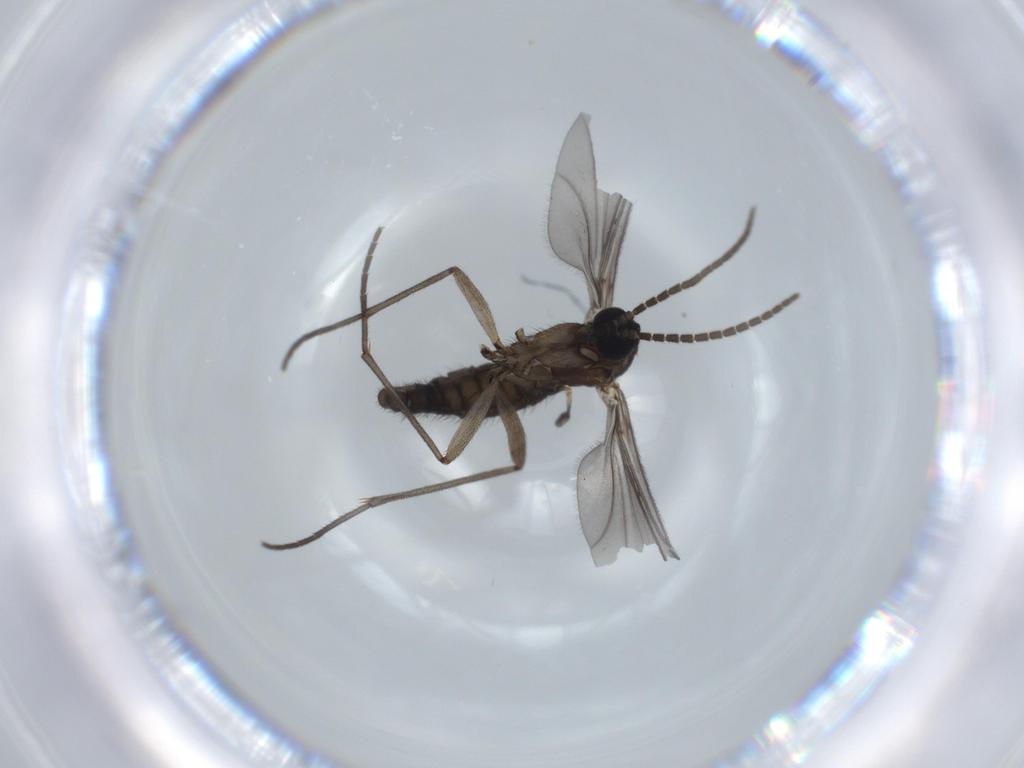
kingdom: Animalia
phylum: Arthropoda
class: Insecta
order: Diptera
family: Sciaridae
